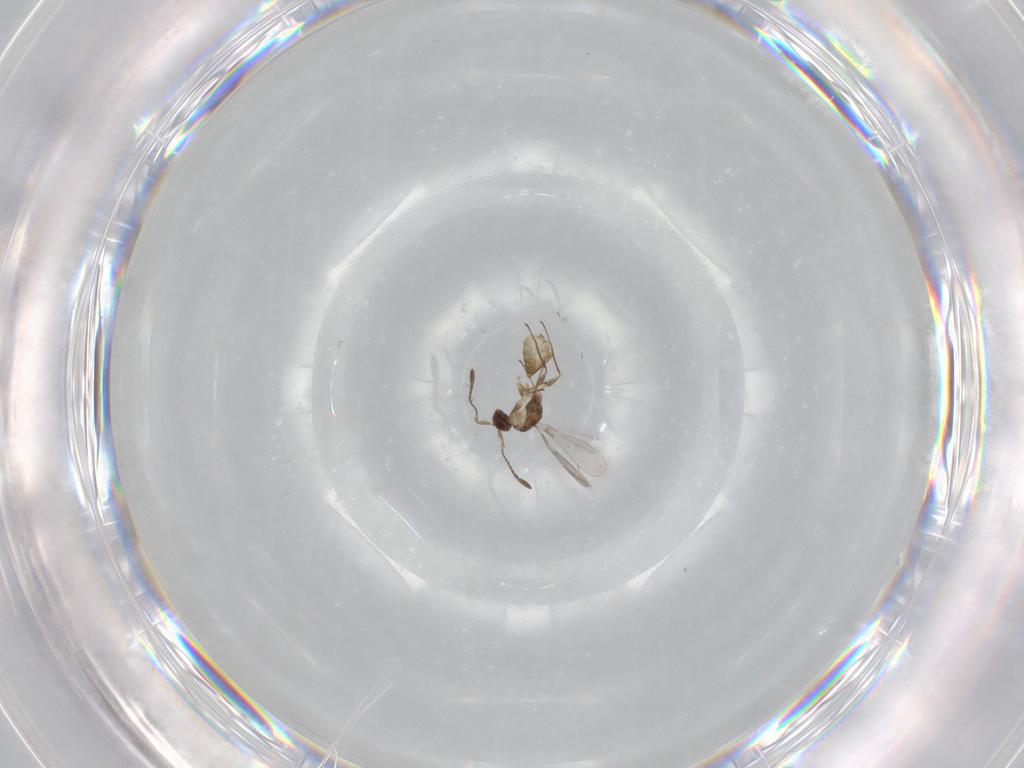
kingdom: Animalia
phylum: Arthropoda
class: Insecta
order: Hymenoptera
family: Mymaridae
